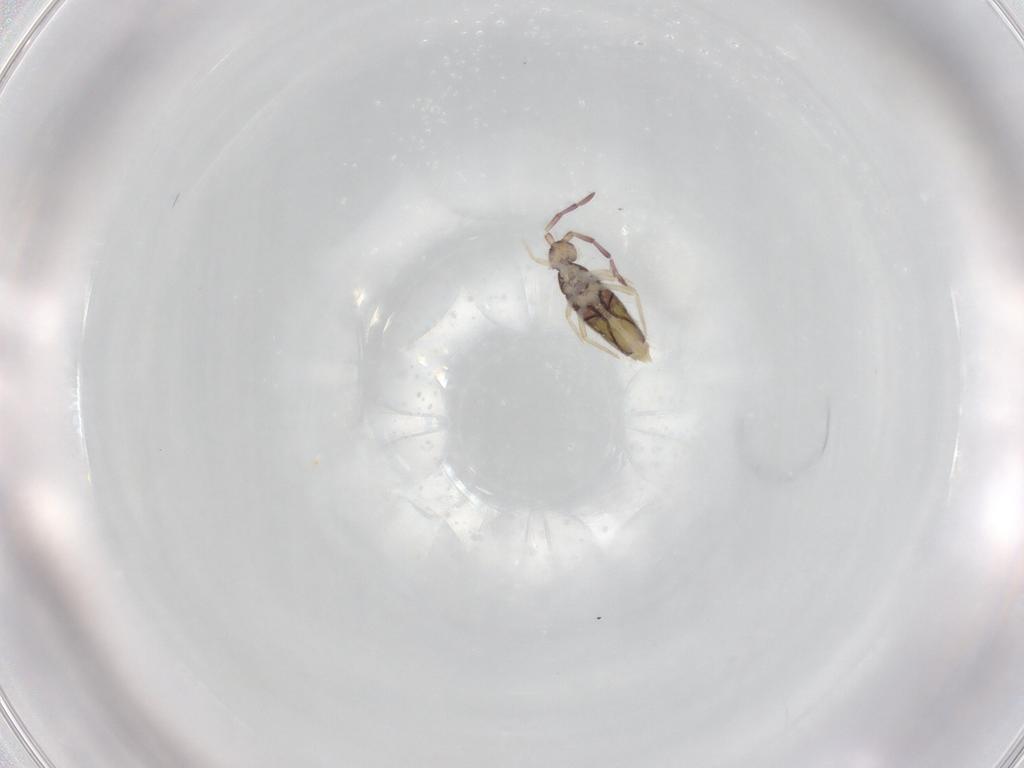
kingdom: Animalia
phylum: Arthropoda
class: Collembola
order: Entomobryomorpha
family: Entomobryidae
